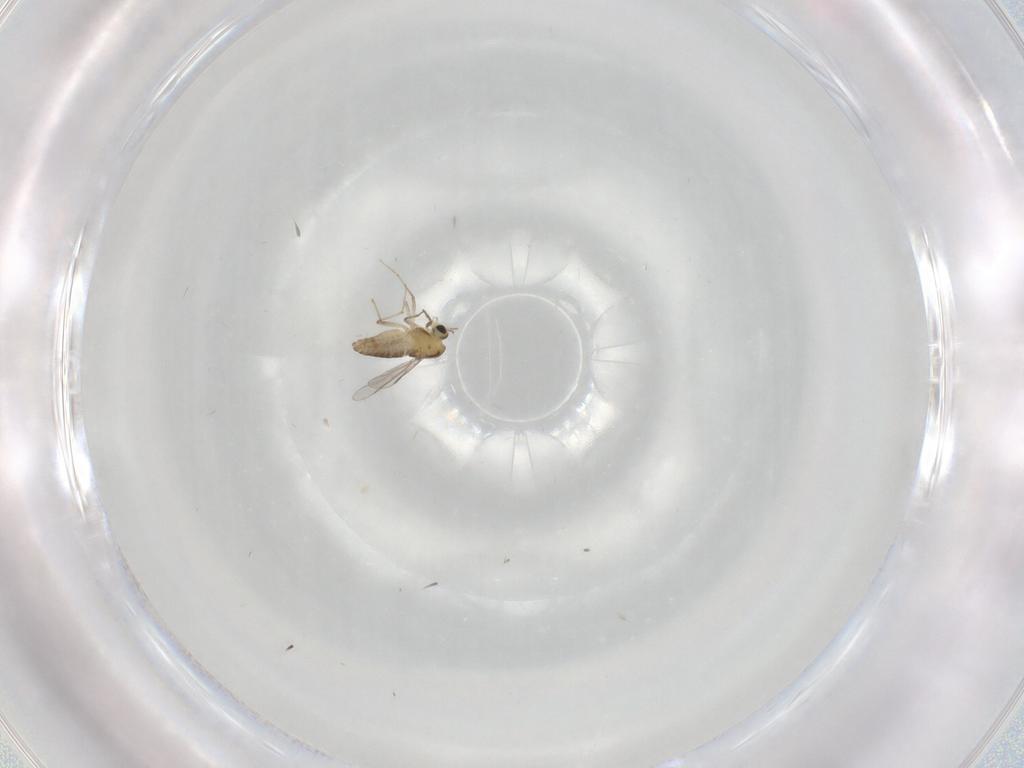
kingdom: Animalia
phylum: Arthropoda
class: Insecta
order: Diptera
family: Chironomidae
